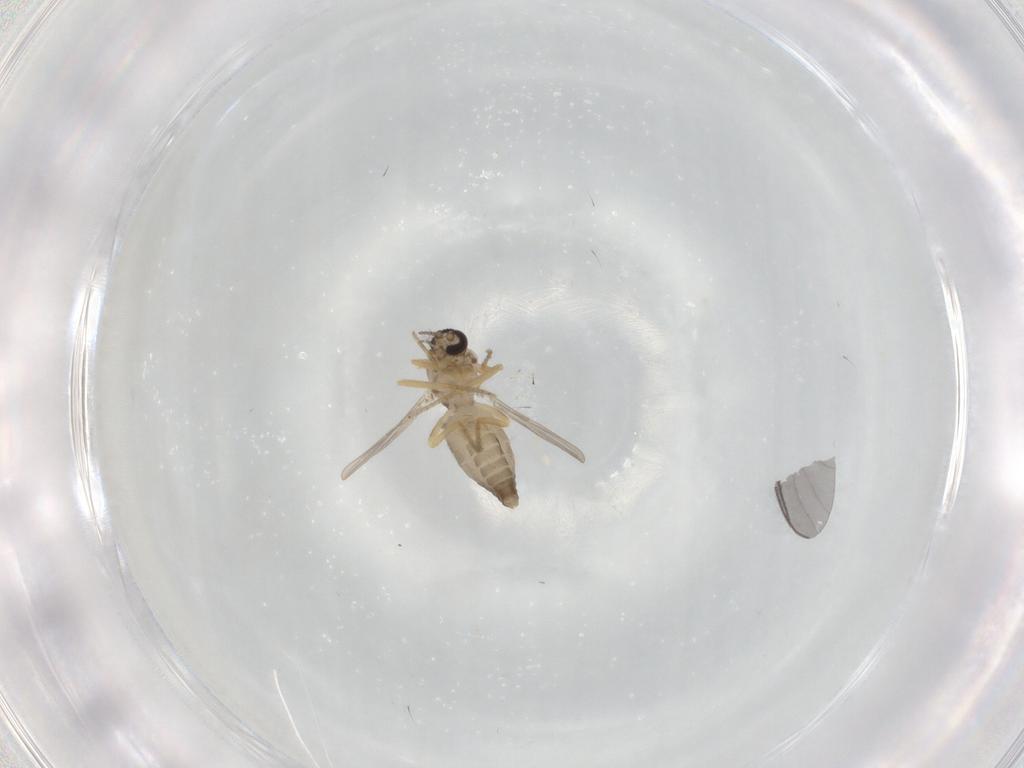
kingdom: Animalia
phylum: Arthropoda
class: Insecta
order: Diptera
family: Ceratopogonidae
